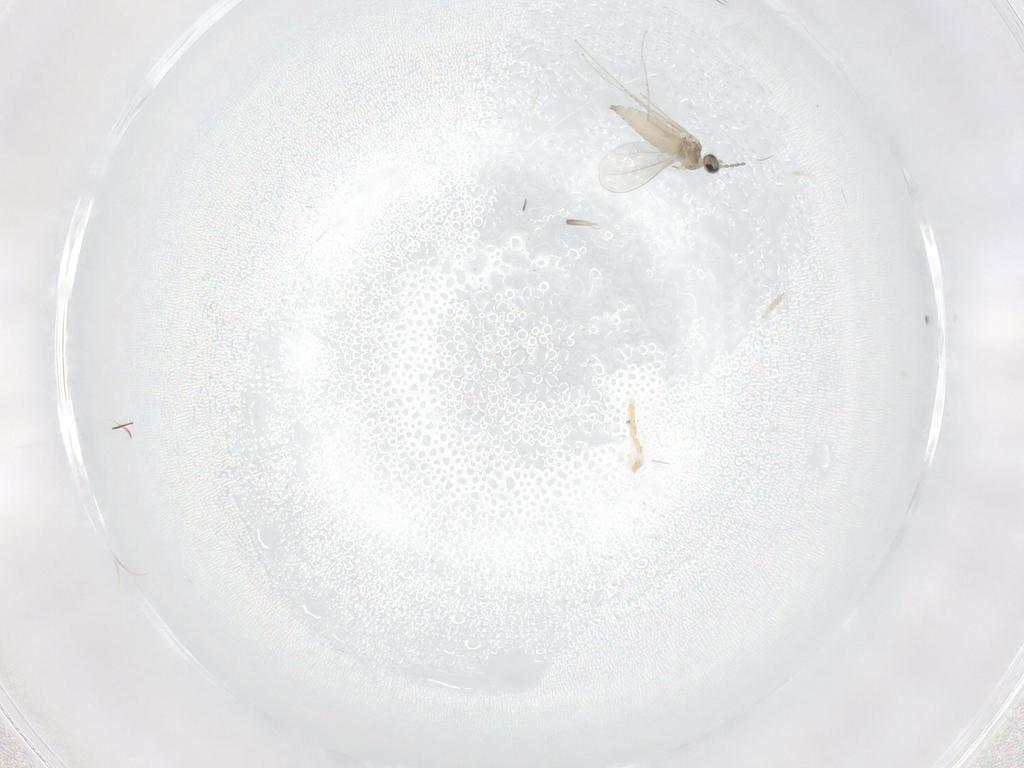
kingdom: Animalia
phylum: Arthropoda
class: Insecta
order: Diptera
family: Cecidomyiidae
